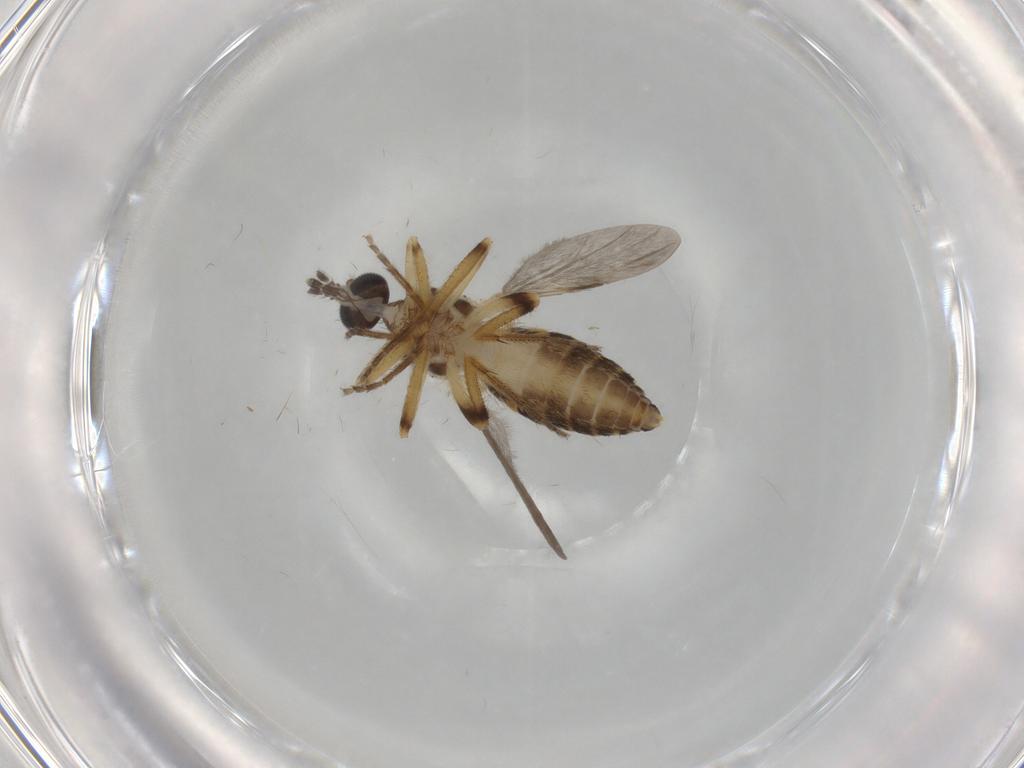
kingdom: Animalia
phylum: Arthropoda
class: Insecta
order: Diptera
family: Ceratopogonidae
